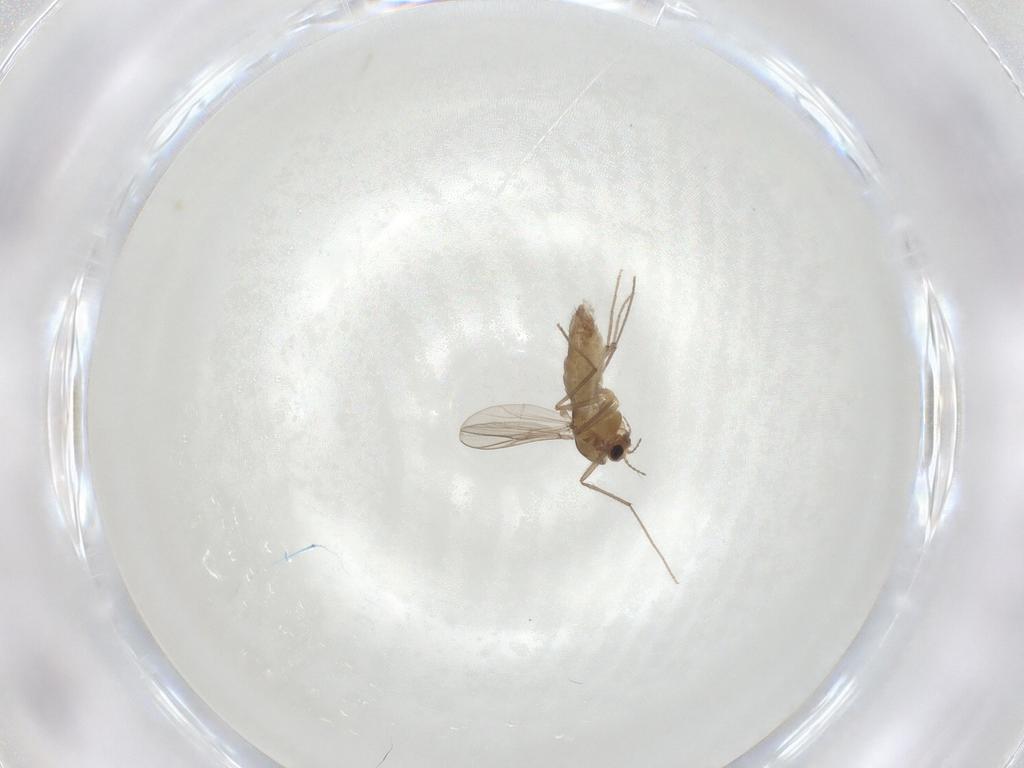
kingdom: Animalia
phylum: Arthropoda
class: Insecta
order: Diptera
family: Chironomidae
